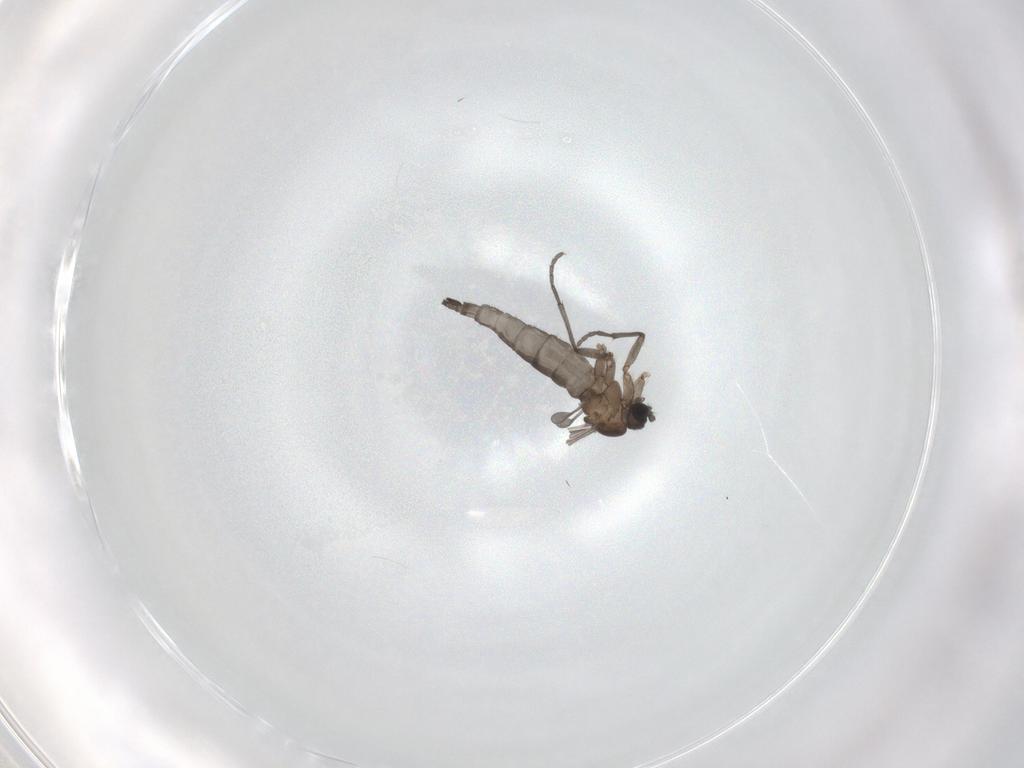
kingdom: Animalia
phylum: Arthropoda
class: Insecta
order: Diptera
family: Sciaridae
